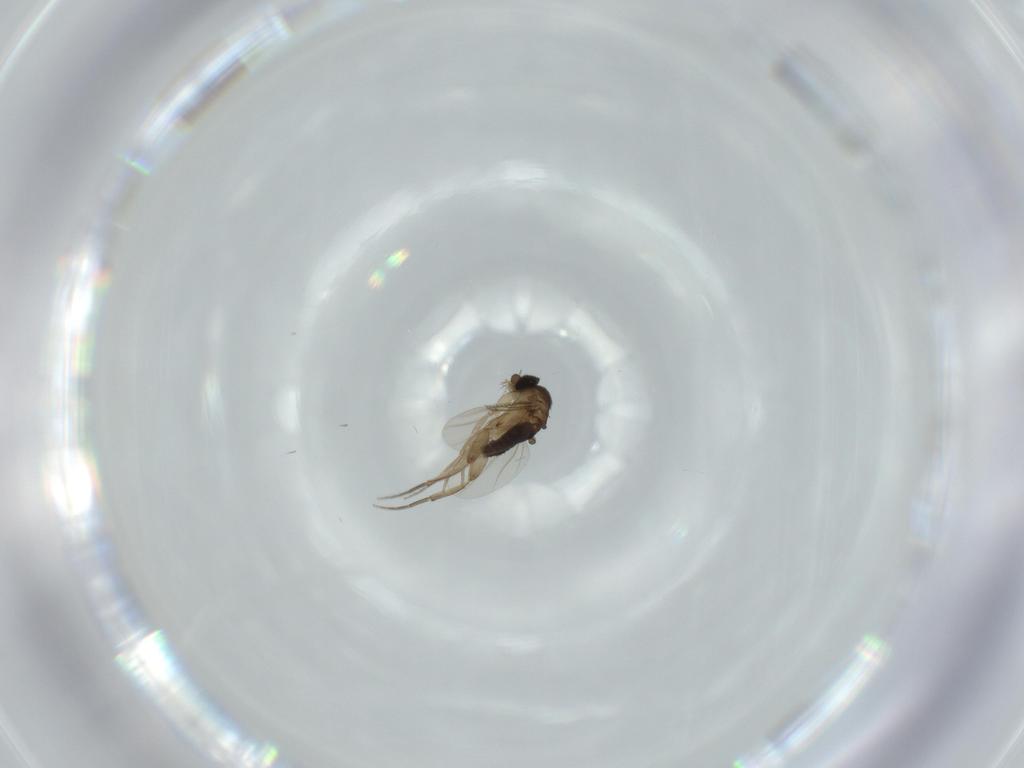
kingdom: Animalia
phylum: Arthropoda
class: Insecta
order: Diptera
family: Phoridae
